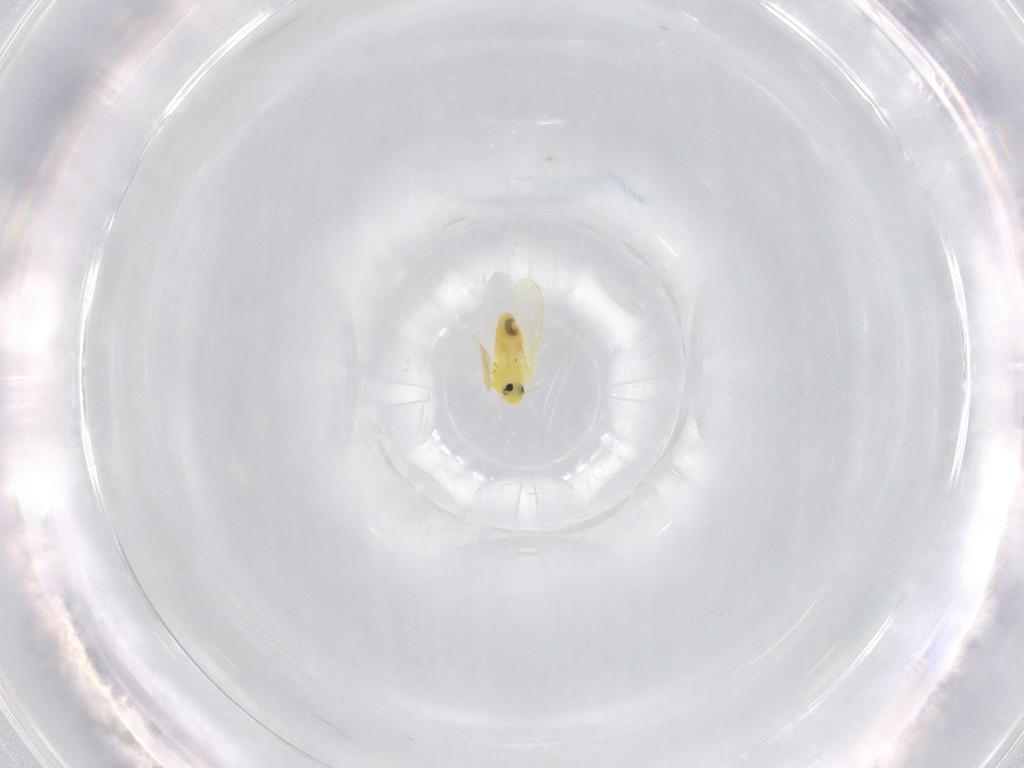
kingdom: Animalia
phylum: Arthropoda
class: Insecta
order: Hemiptera
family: Aleyrodidae
